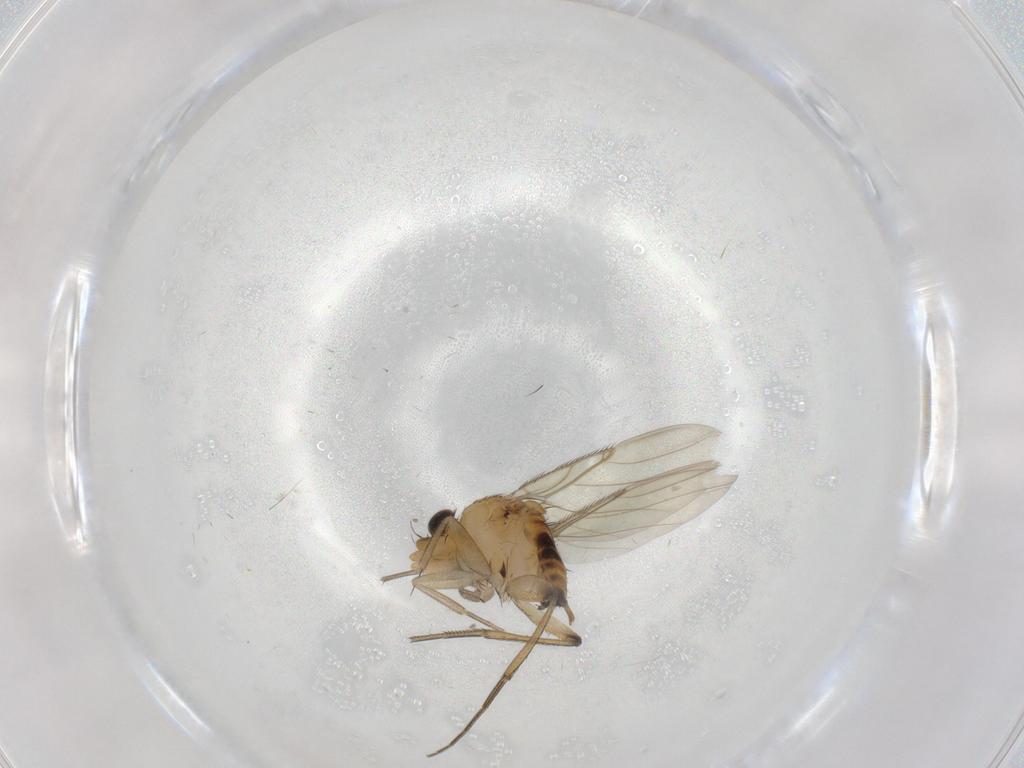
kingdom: Animalia
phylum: Arthropoda
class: Insecta
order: Diptera
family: Phoridae
